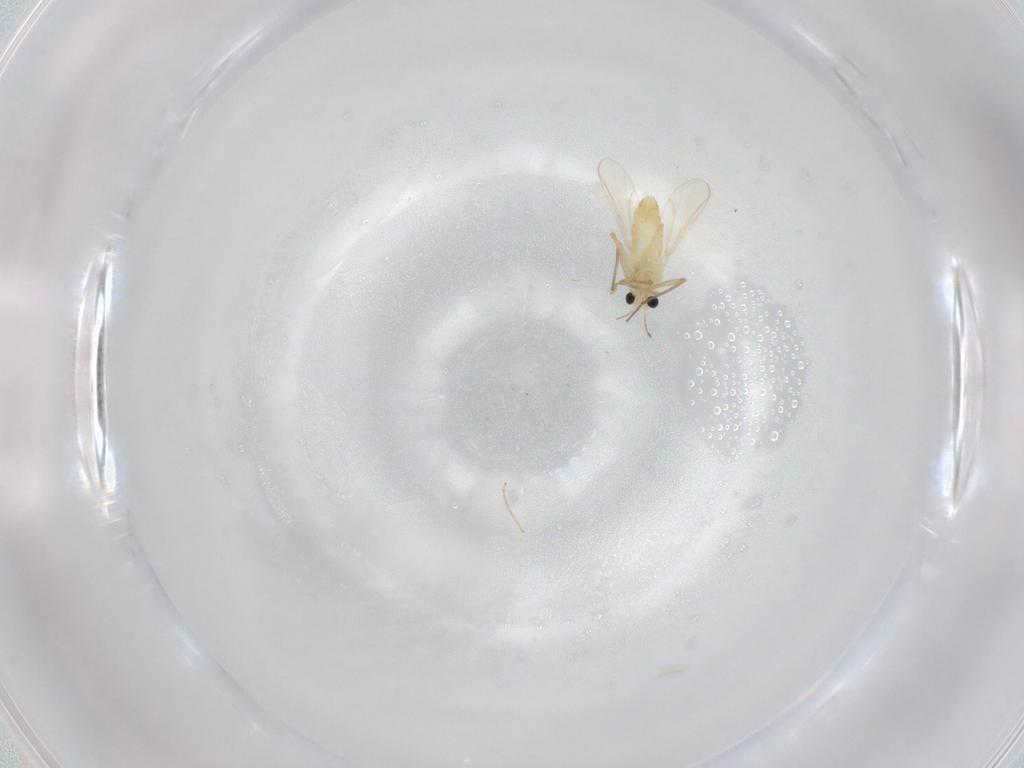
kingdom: Animalia
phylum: Arthropoda
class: Insecta
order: Diptera
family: Chironomidae
